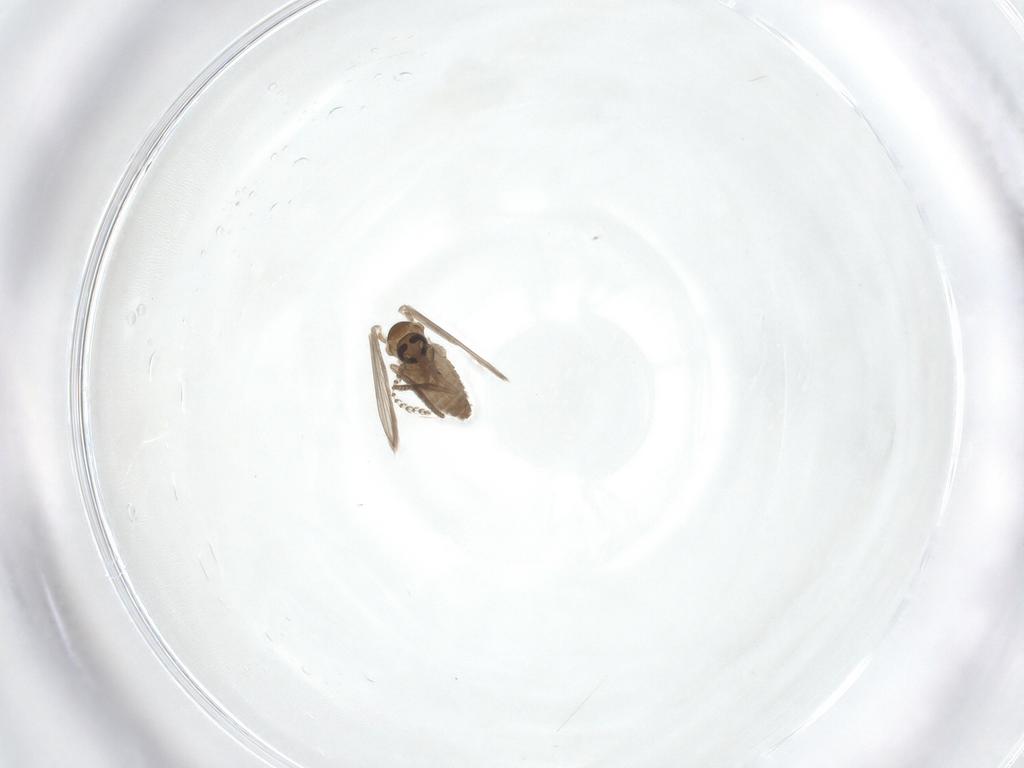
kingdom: Animalia
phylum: Arthropoda
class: Insecta
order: Diptera
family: Psychodidae
